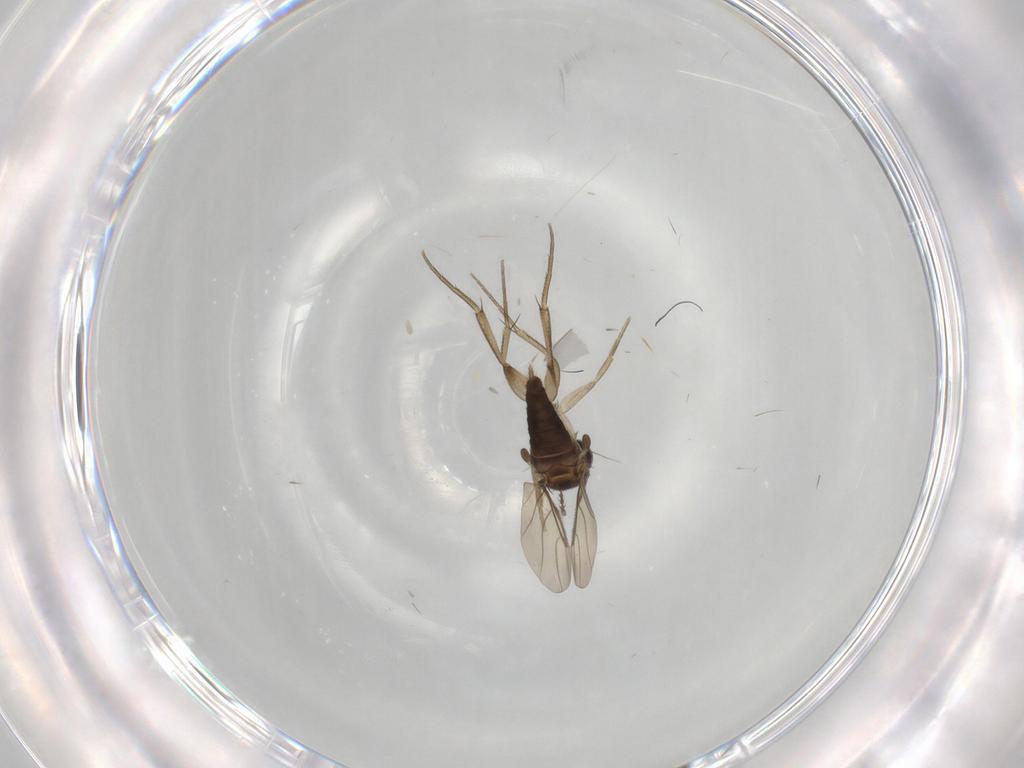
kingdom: Animalia
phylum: Arthropoda
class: Insecta
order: Diptera
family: Phoridae
